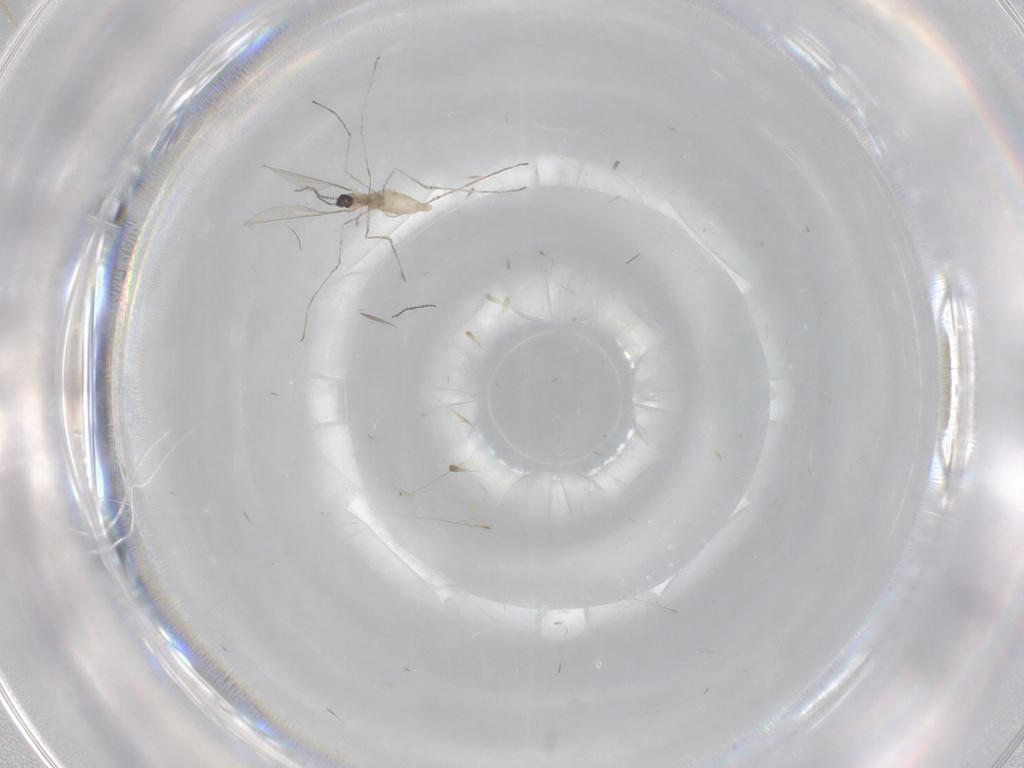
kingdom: Animalia
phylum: Arthropoda
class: Insecta
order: Diptera
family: Cecidomyiidae
